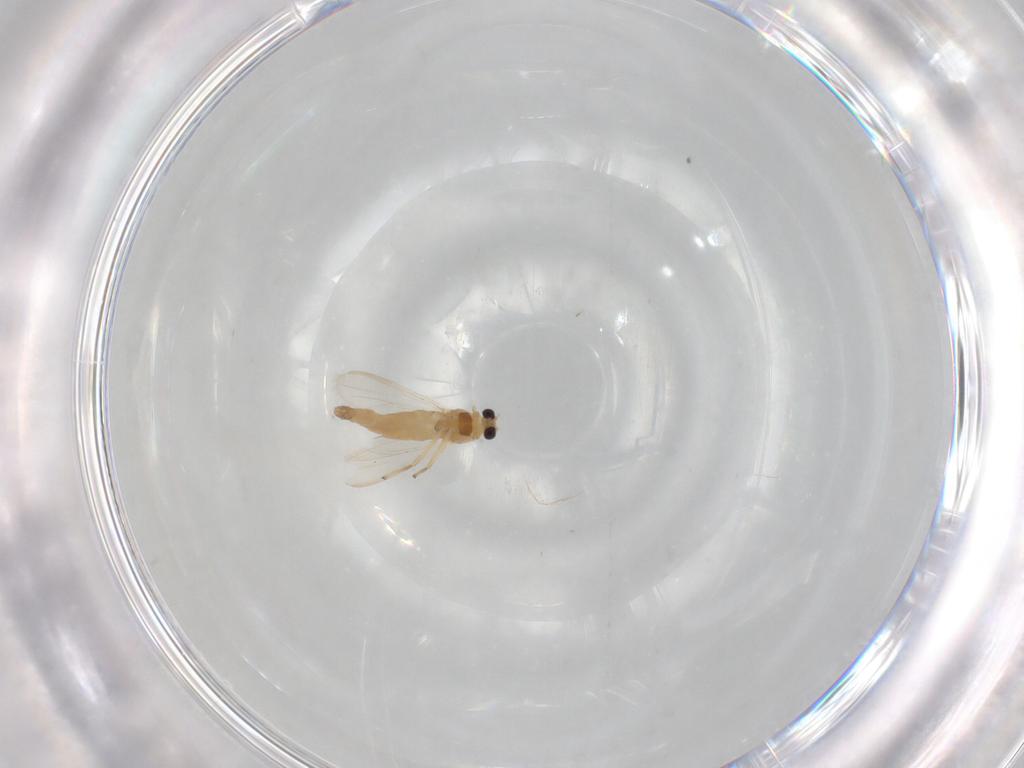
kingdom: Animalia
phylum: Arthropoda
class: Insecta
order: Diptera
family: Chironomidae
